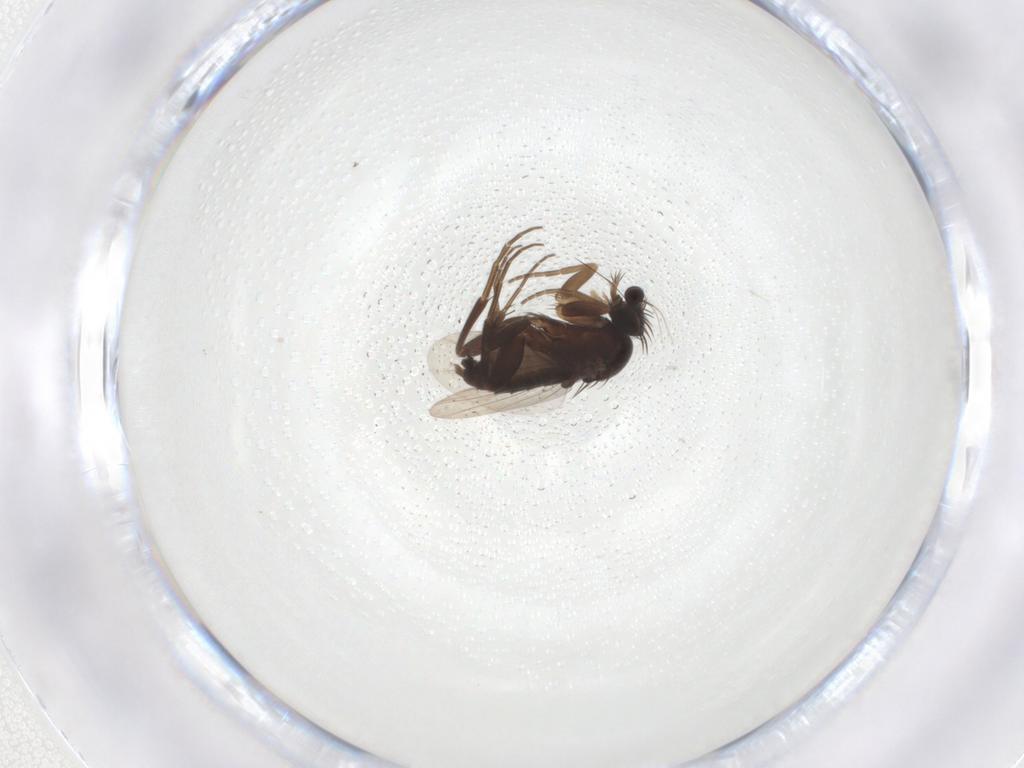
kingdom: Animalia
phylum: Arthropoda
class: Insecta
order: Diptera
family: Phoridae
